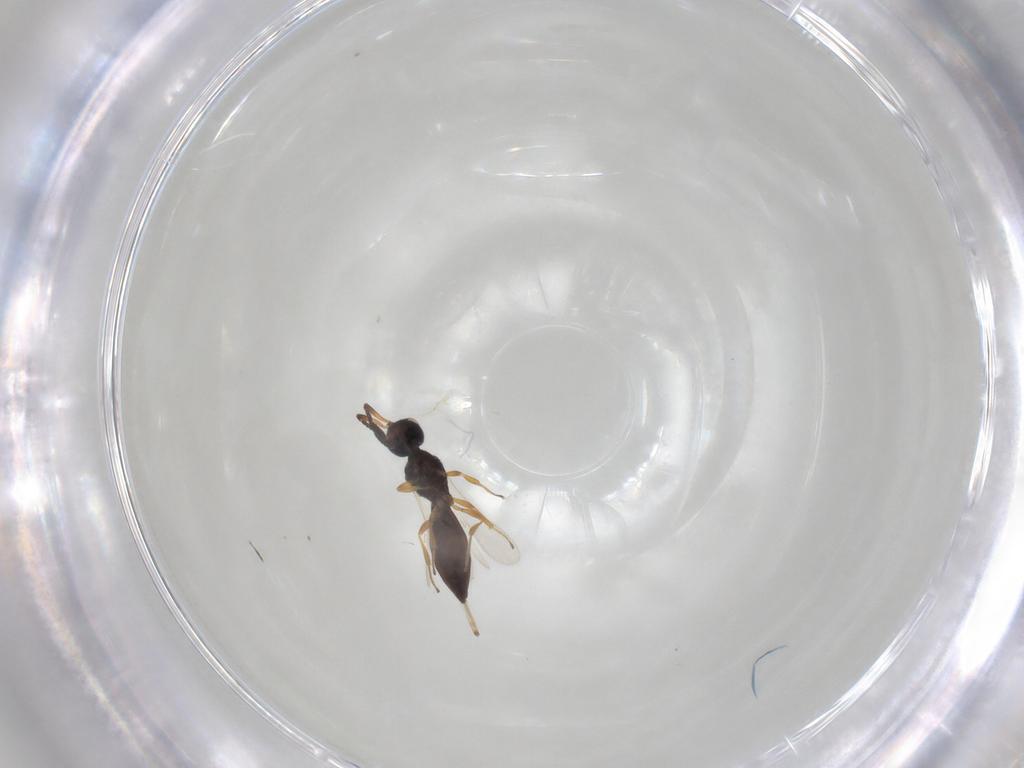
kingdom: Animalia
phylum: Arthropoda
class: Insecta
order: Hymenoptera
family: Scelionidae
